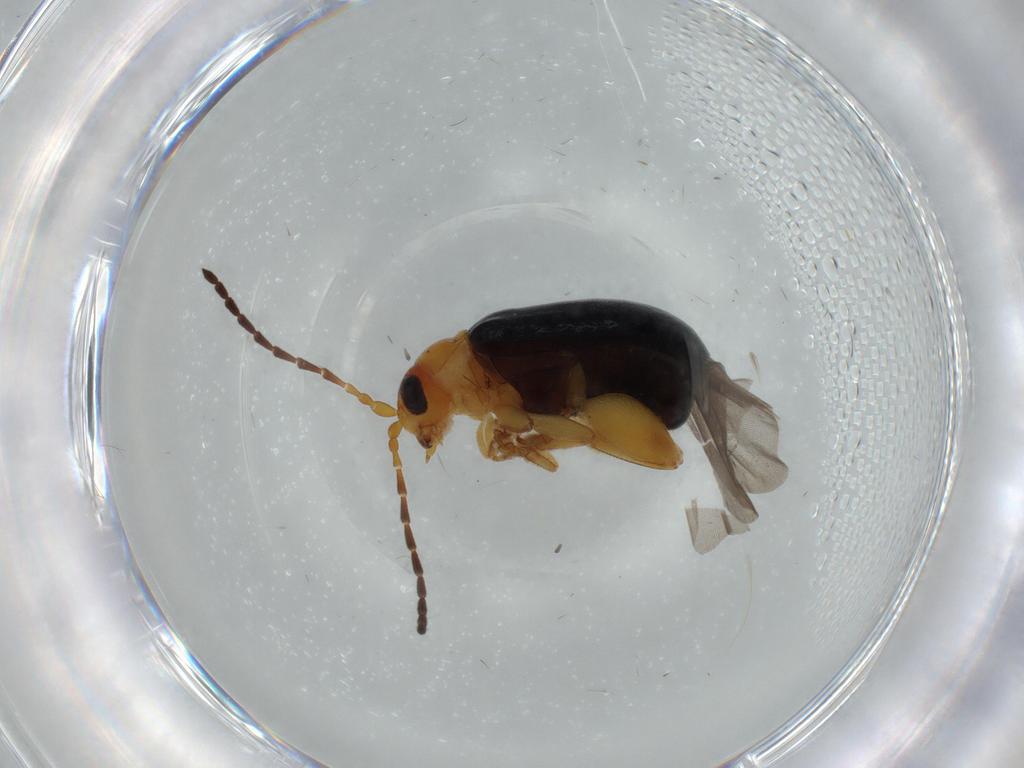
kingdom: Animalia
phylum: Arthropoda
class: Insecta
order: Coleoptera
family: Chrysomelidae
